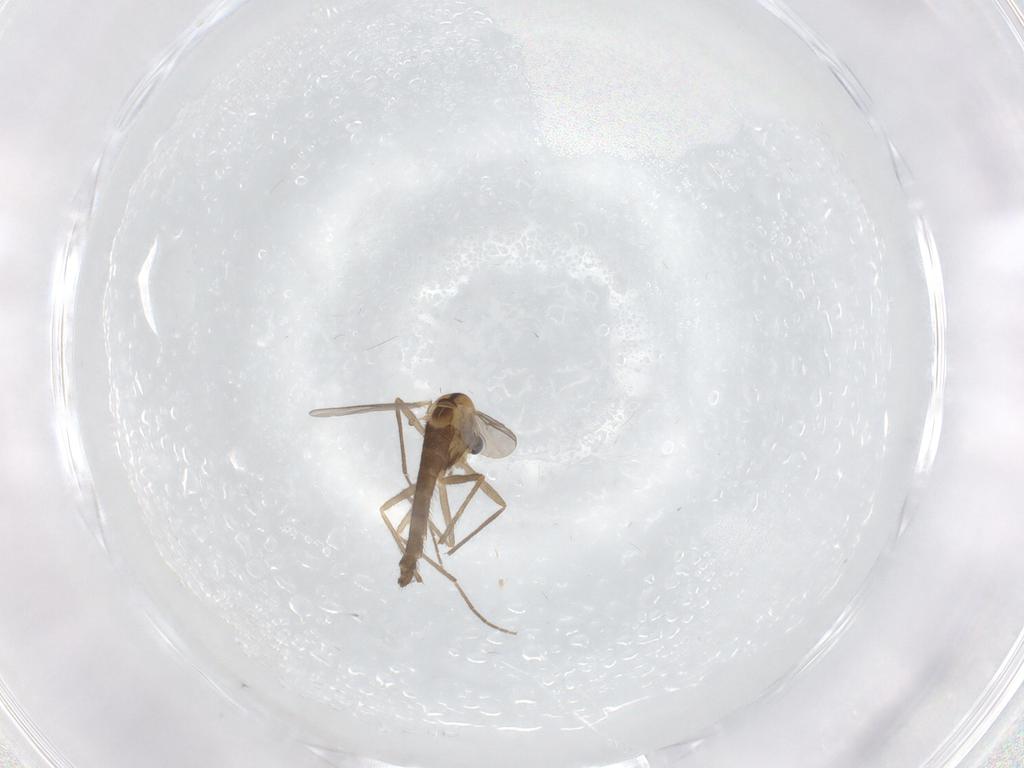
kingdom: Animalia
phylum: Arthropoda
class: Insecta
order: Diptera
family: Chironomidae
